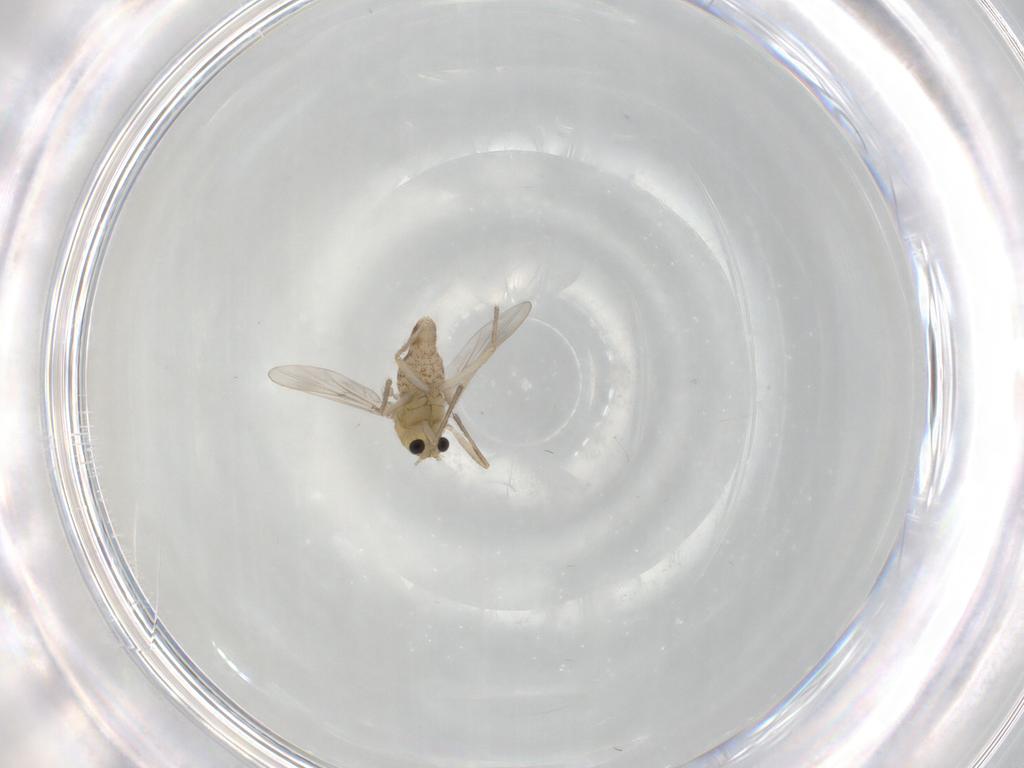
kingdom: Animalia
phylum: Arthropoda
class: Insecta
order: Diptera
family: Chironomidae
